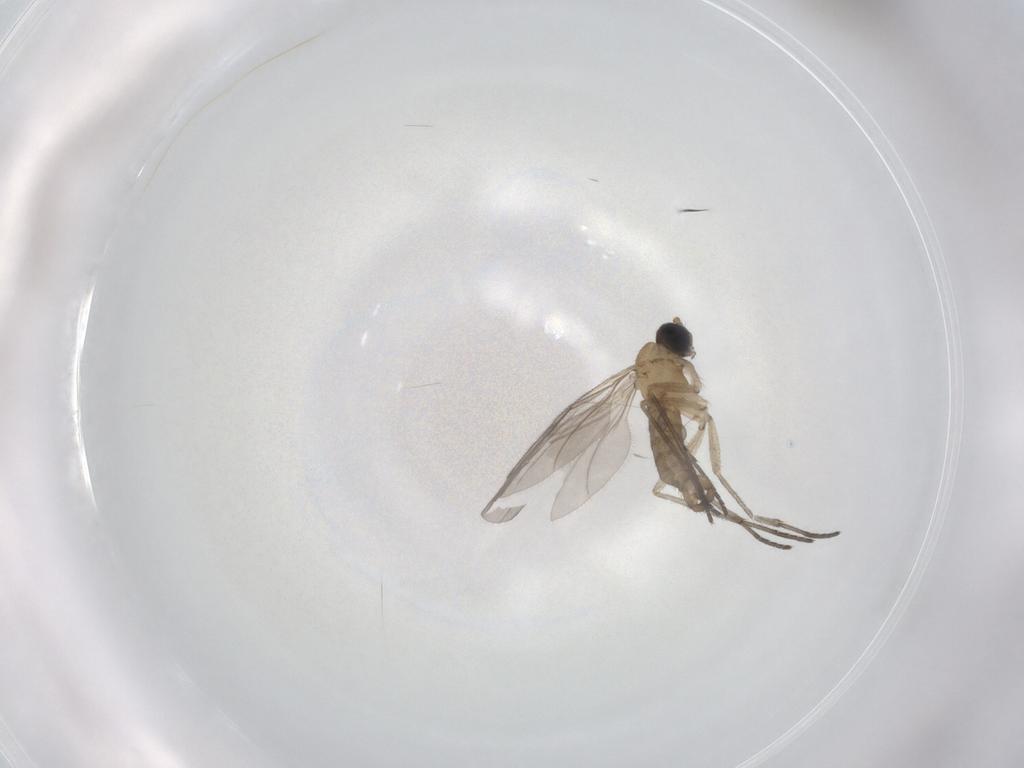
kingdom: Animalia
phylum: Arthropoda
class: Insecta
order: Diptera
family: Sciaridae
